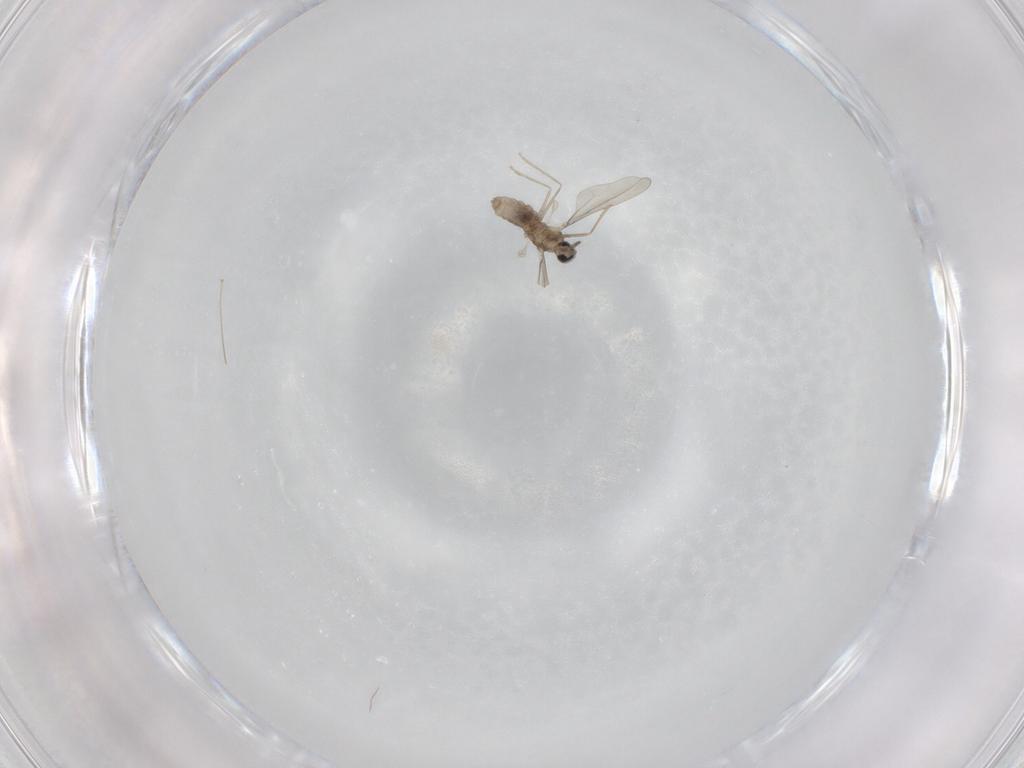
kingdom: Animalia
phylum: Arthropoda
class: Insecta
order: Diptera
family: Cecidomyiidae
